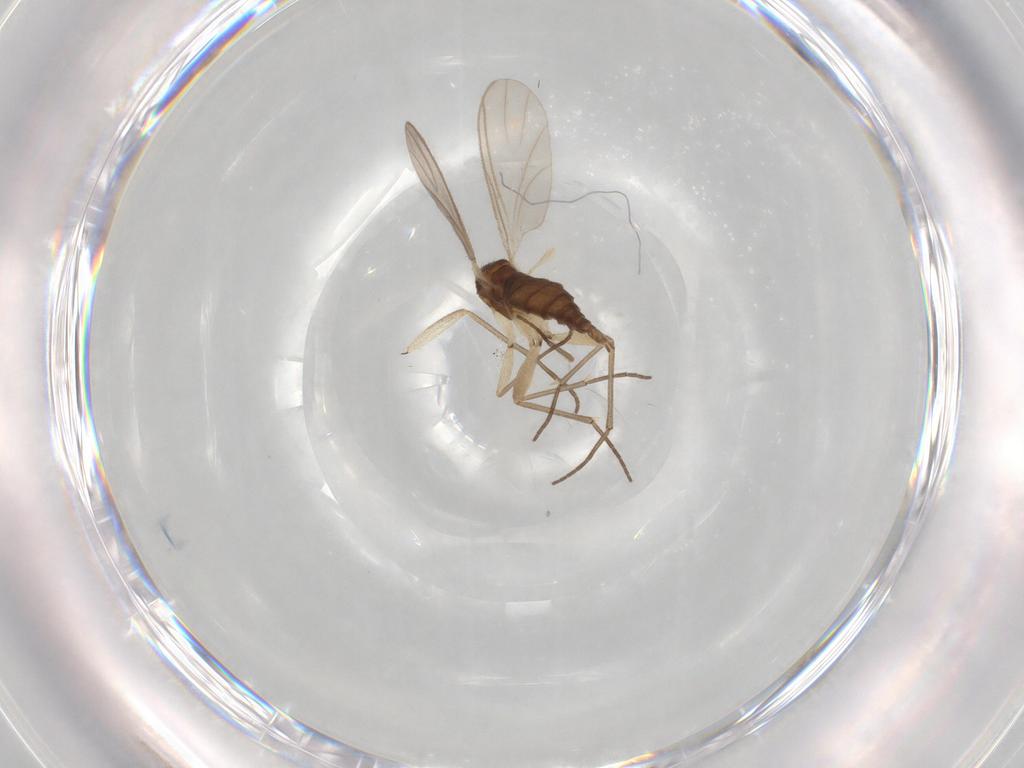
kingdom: Animalia
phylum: Arthropoda
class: Insecta
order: Diptera
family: Sciaridae
